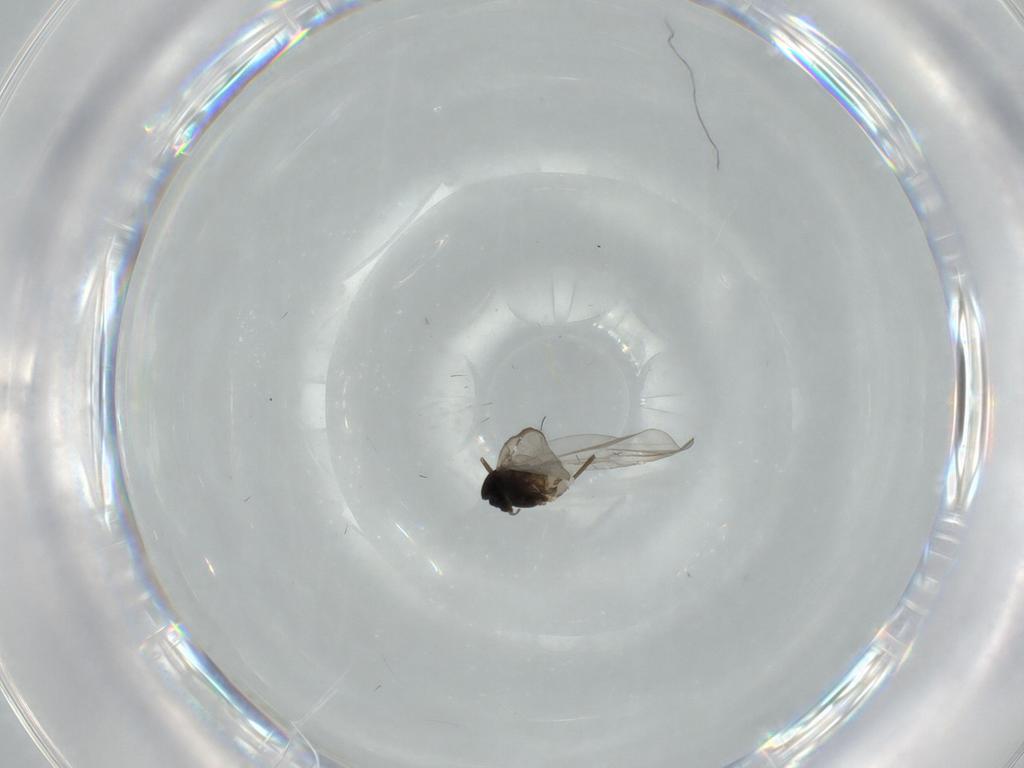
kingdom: Animalia
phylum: Arthropoda
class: Insecta
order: Diptera
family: Chironomidae
